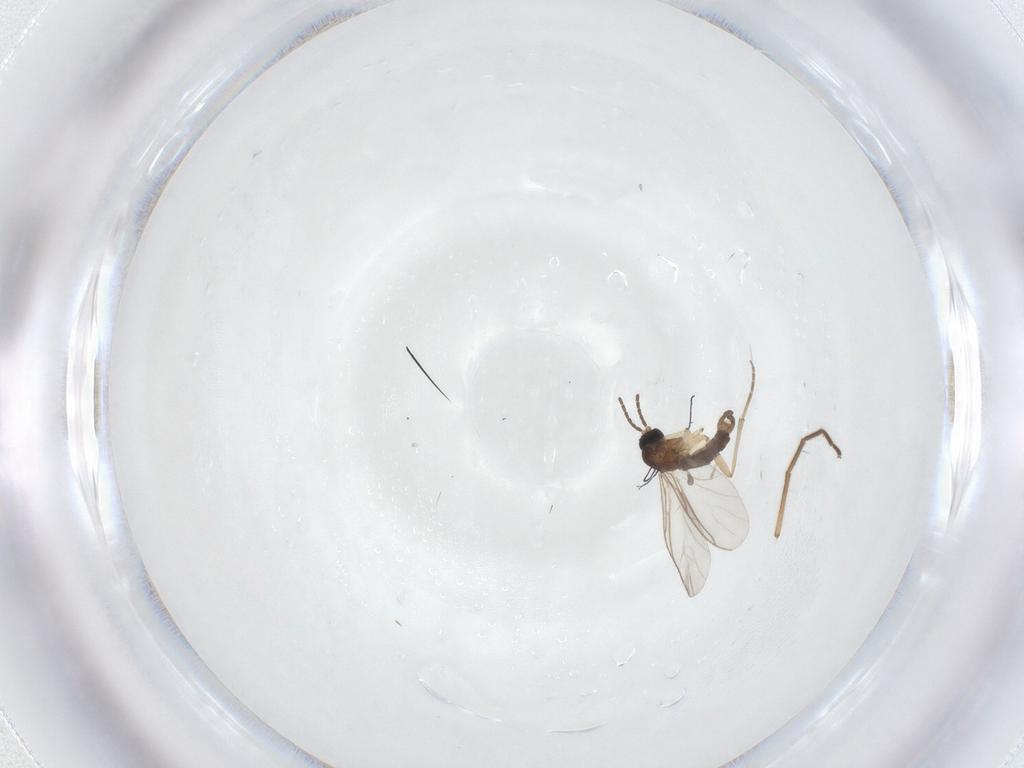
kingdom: Animalia
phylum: Arthropoda
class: Insecta
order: Diptera
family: Sciaridae
